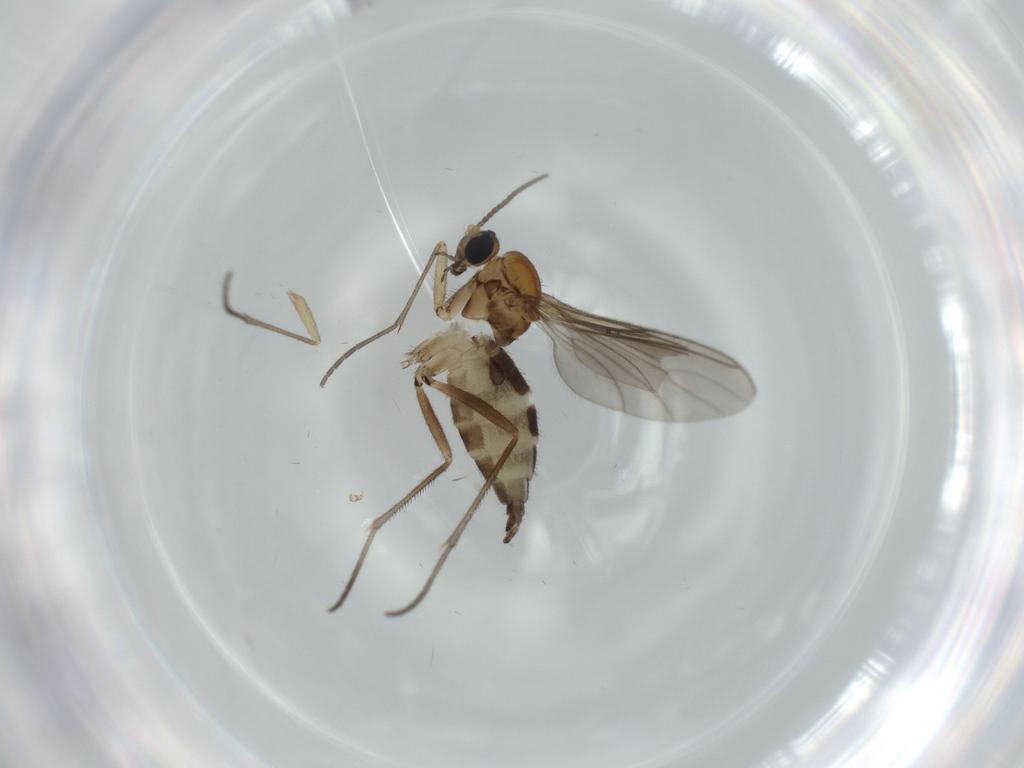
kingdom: Animalia
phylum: Arthropoda
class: Insecta
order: Diptera
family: Sciaridae
